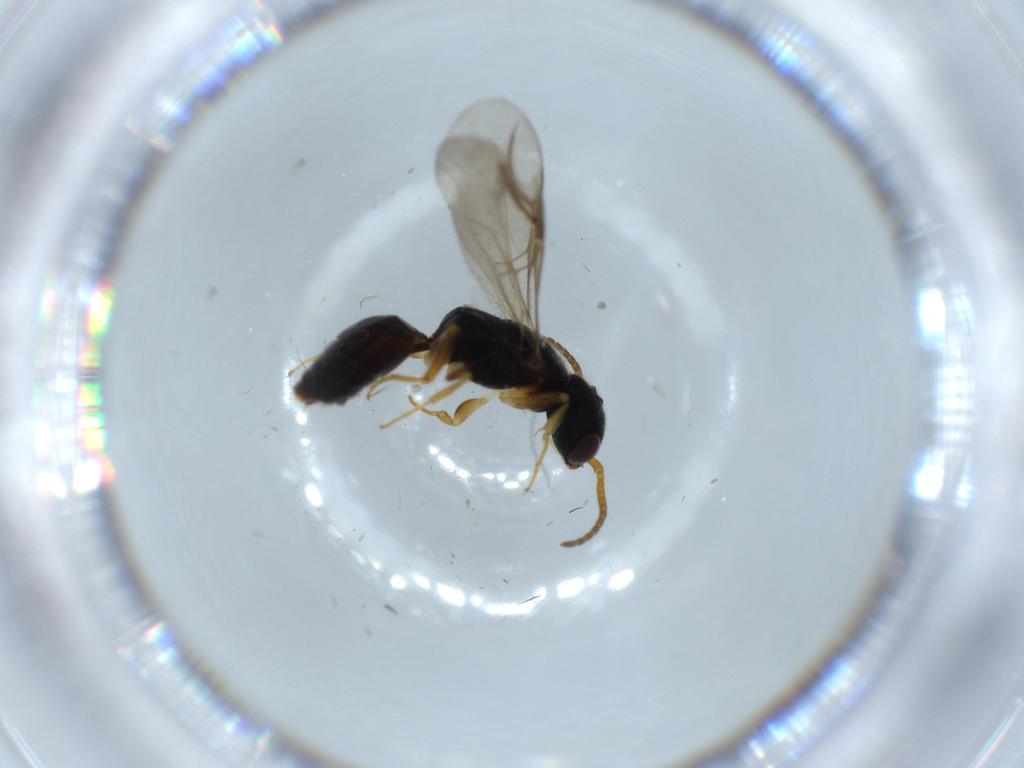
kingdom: Animalia
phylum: Arthropoda
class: Insecta
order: Hymenoptera
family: Bethylidae
